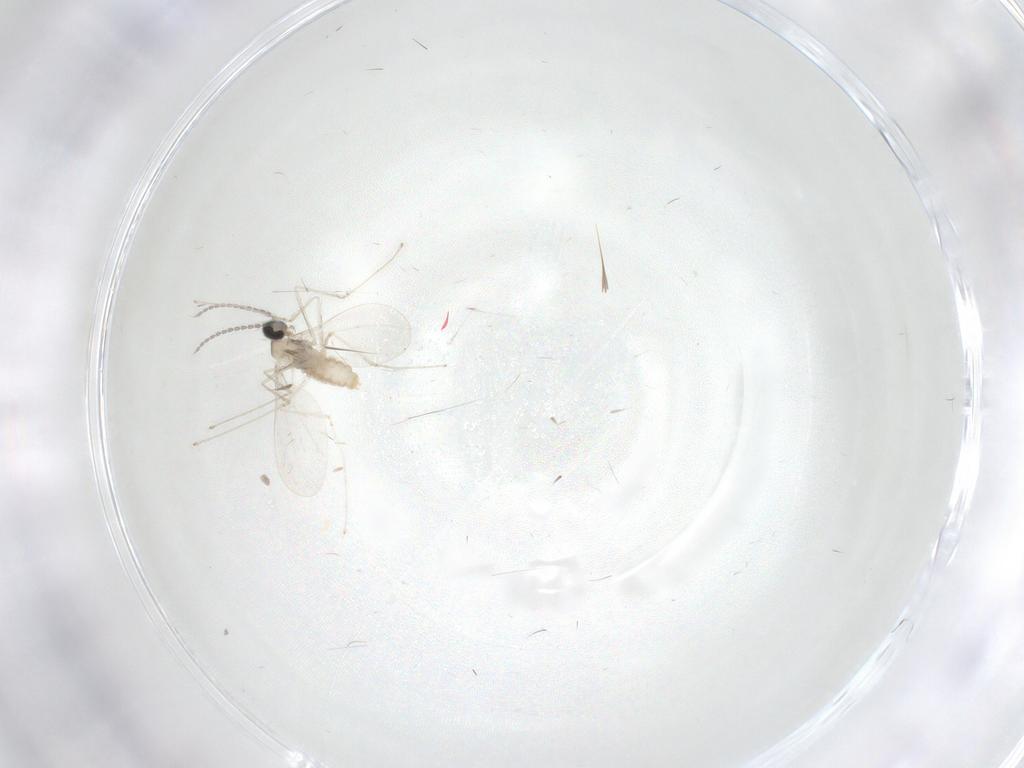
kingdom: Animalia
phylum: Arthropoda
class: Insecta
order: Diptera
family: Cecidomyiidae
